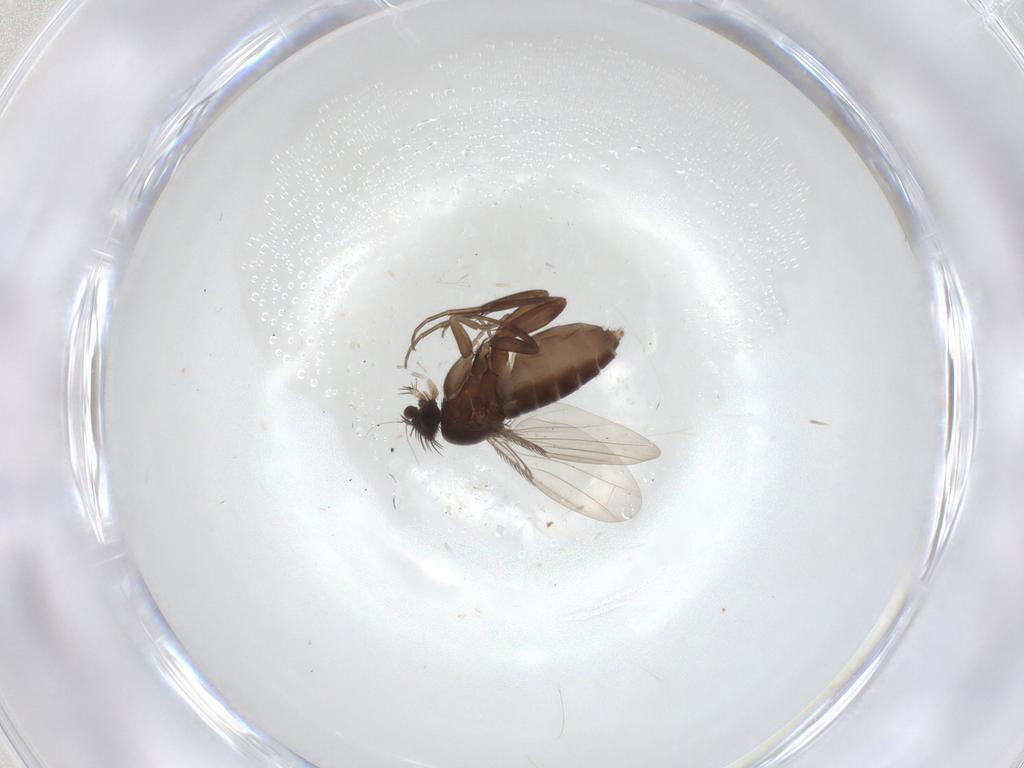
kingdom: Animalia
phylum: Arthropoda
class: Insecta
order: Diptera
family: Phoridae
